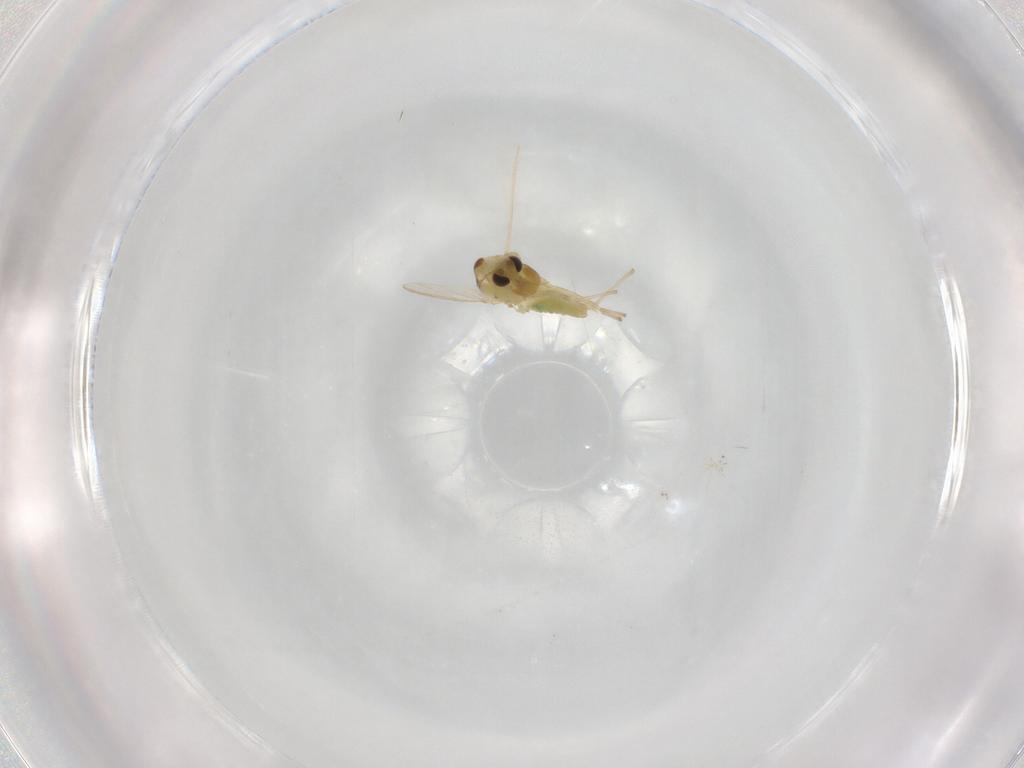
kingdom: Animalia
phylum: Arthropoda
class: Insecta
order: Diptera
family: Chironomidae
